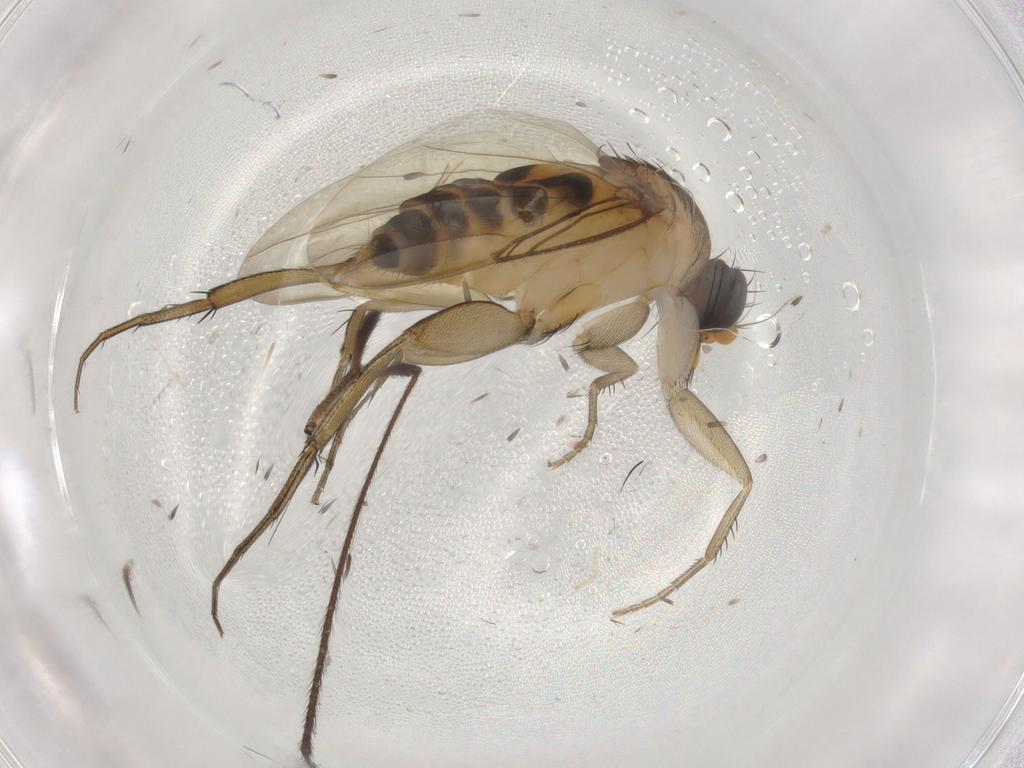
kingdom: Animalia
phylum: Arthropoda
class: Insecta
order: Diptera
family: Limoniidae
